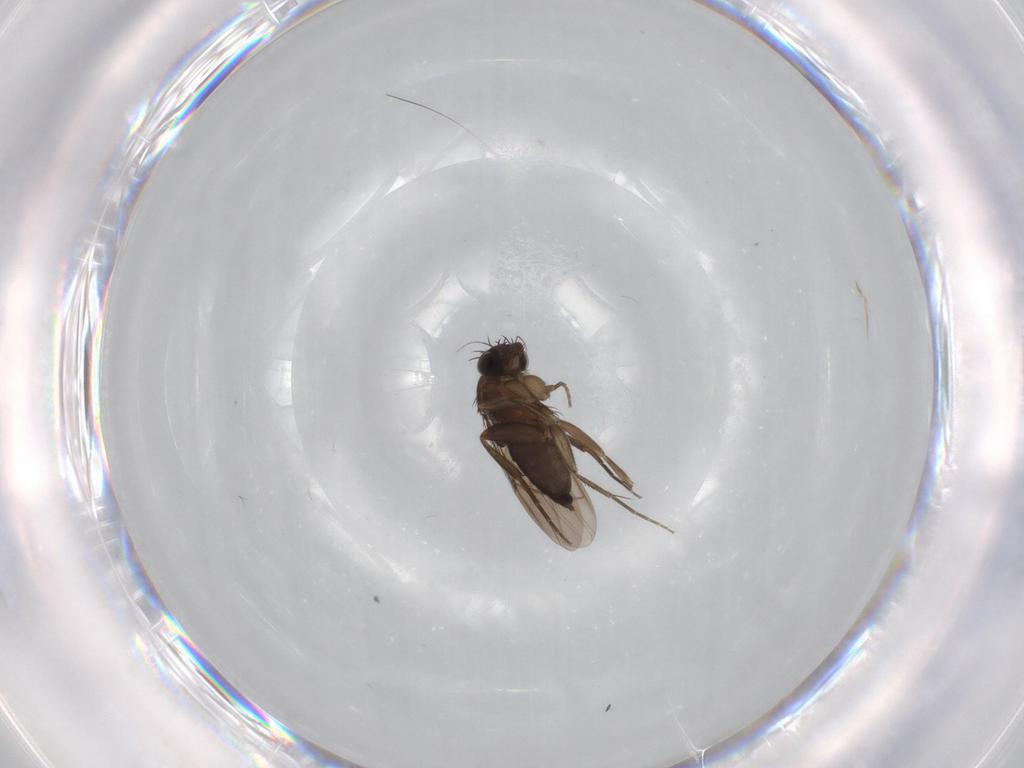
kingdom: Animalia
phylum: Arthropoda
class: Insecta
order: Diptera
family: Phoridae
